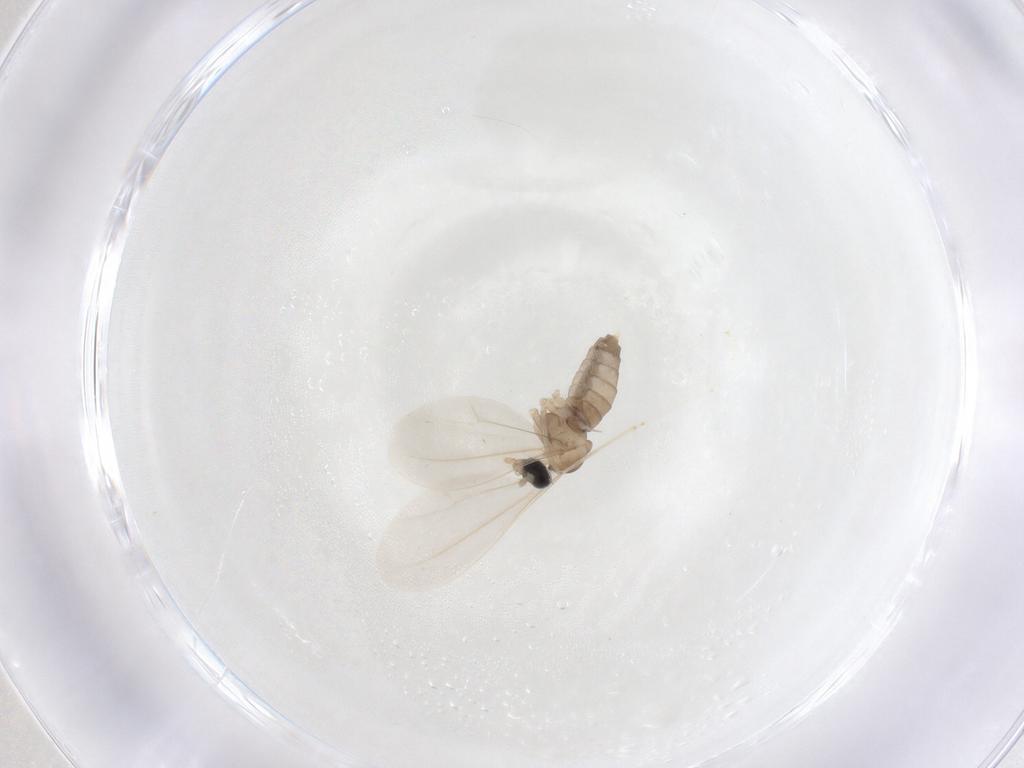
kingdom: Animalia
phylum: Arthropoda
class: Insecta
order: Diptera
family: Cecidomyiidae
